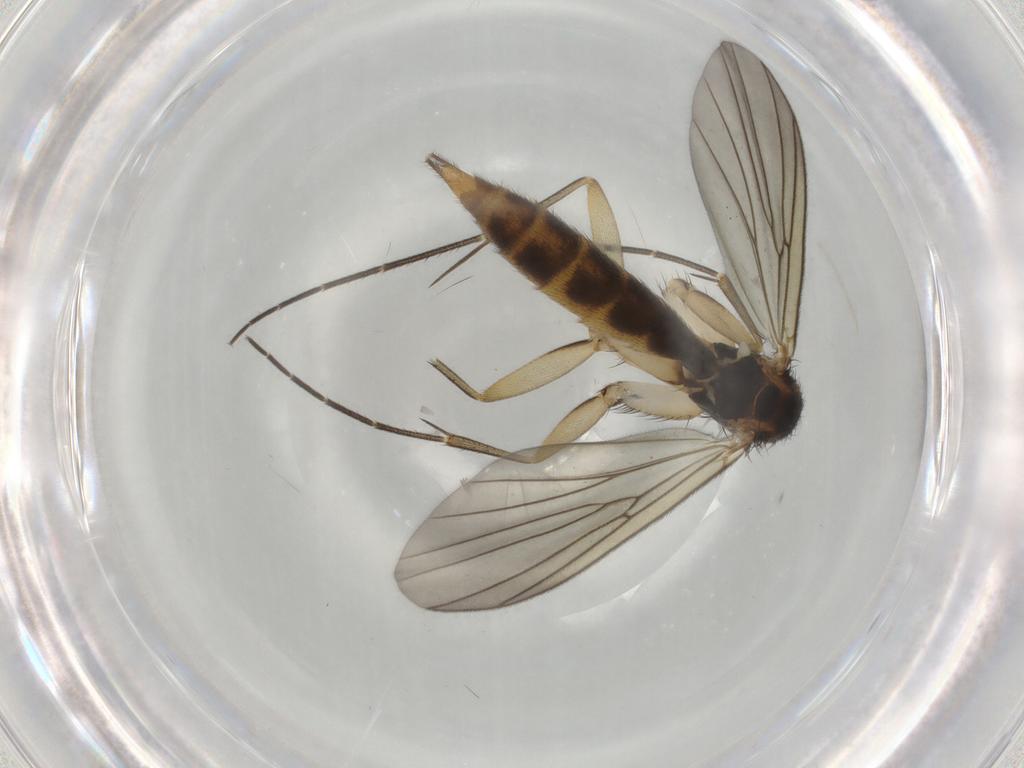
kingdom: Animalia
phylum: Arthropoda
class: Insecta
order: Diptera
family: Mycetophilidae
